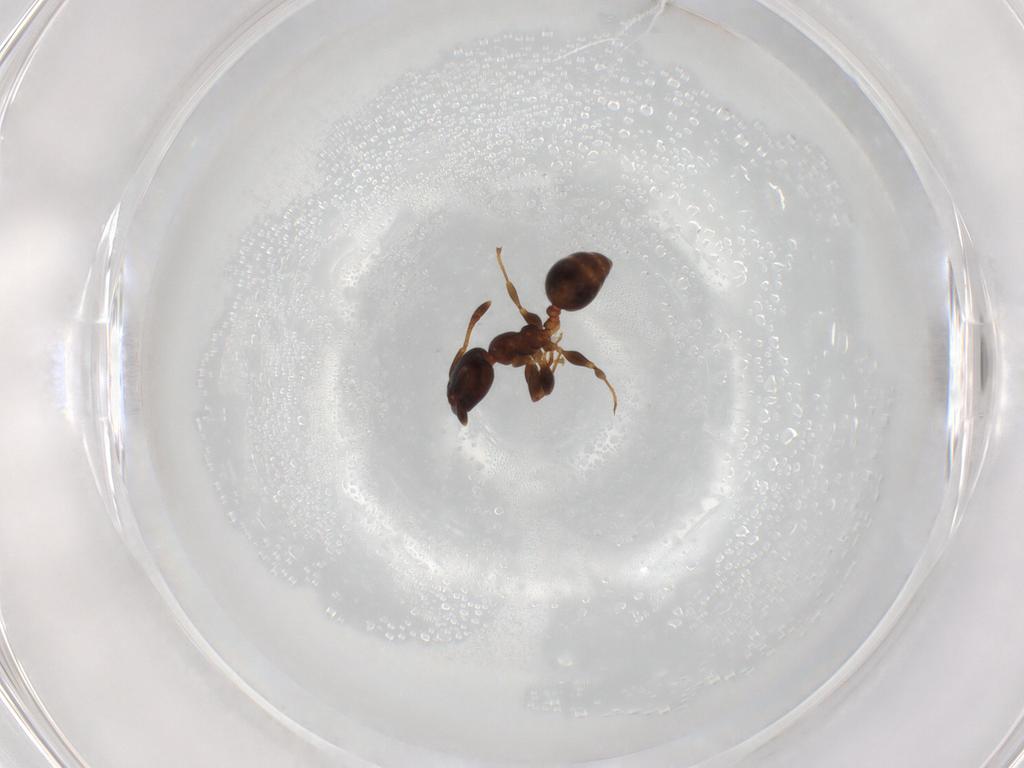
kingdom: Animalia
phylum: Arthropoda
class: Insecta
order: Hymenoptera
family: Formicidae
